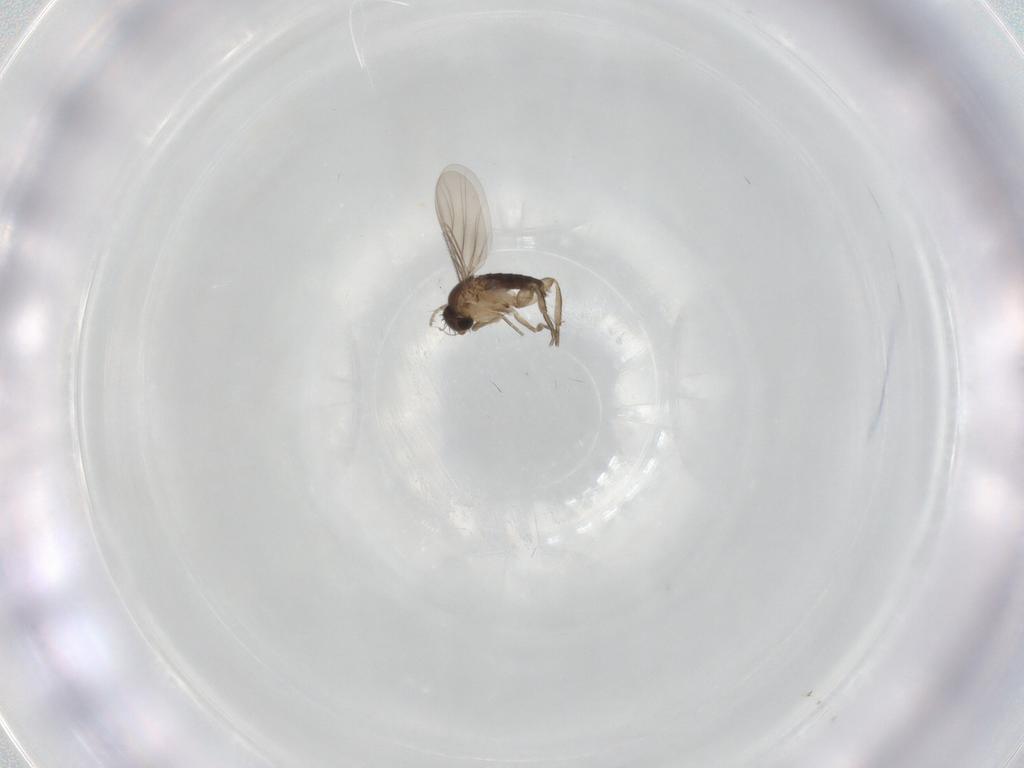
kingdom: Animalia
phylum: Arthropoda
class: Insecta
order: Diptera
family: Phoridae
